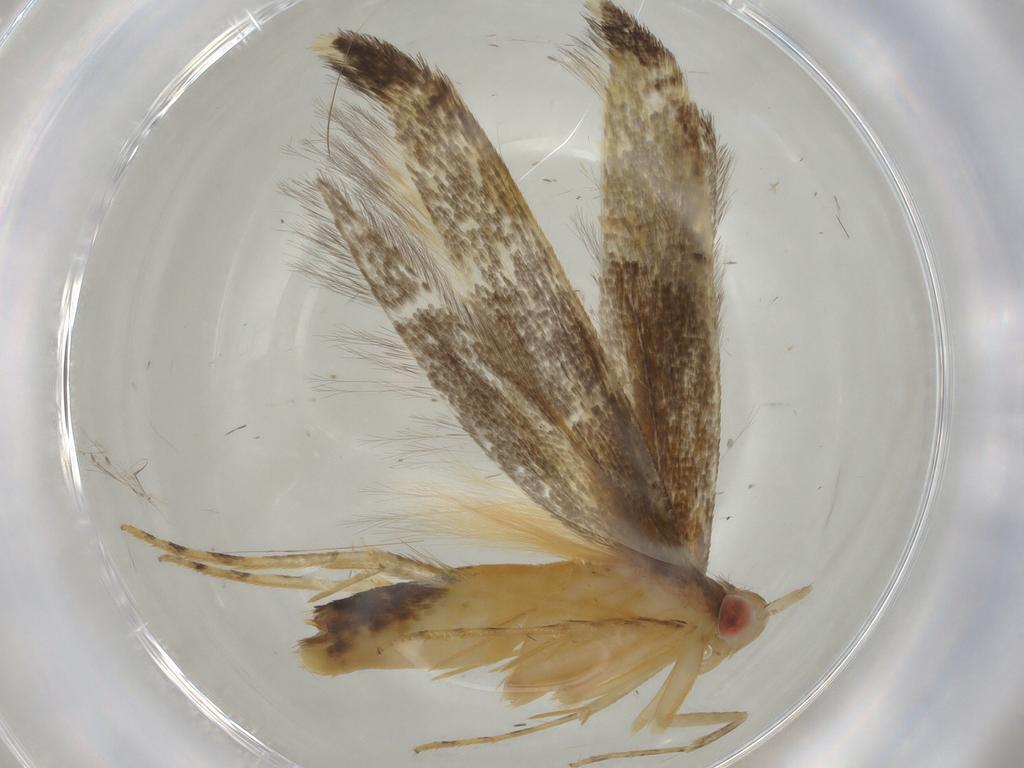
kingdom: Animalia
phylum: Arthropoda
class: Insecta
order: Lepidoptera
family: Cosmopterigidae
